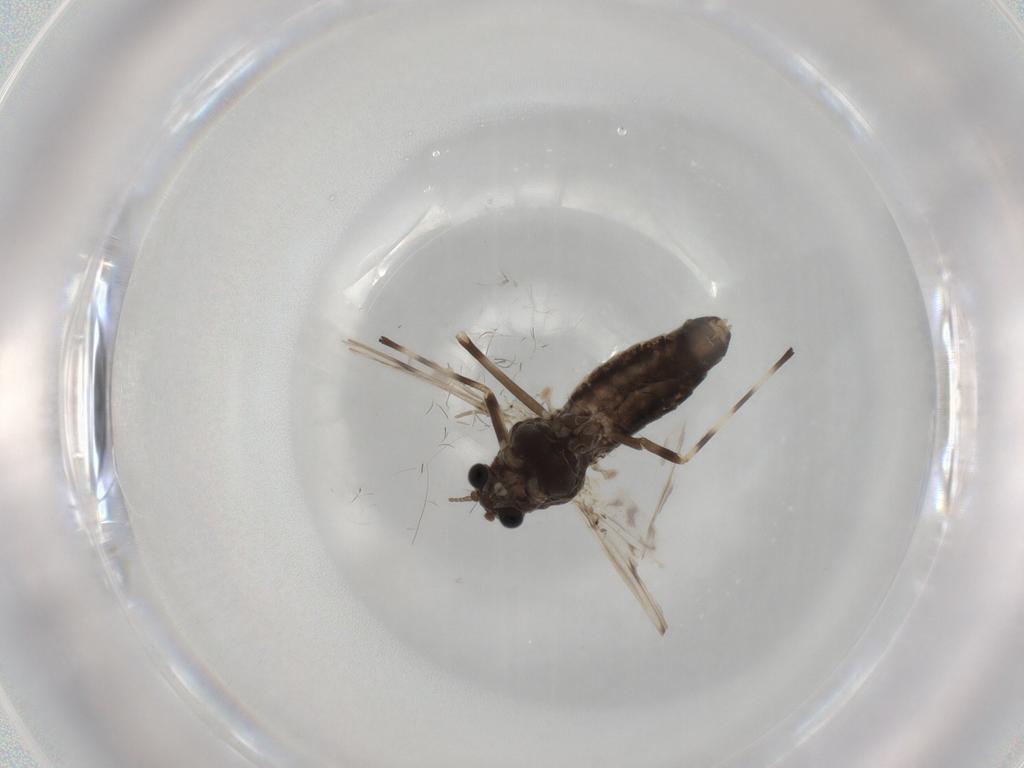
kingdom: Animalia
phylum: Arthropoda
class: Insecta
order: Diptera
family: Chironomidae
